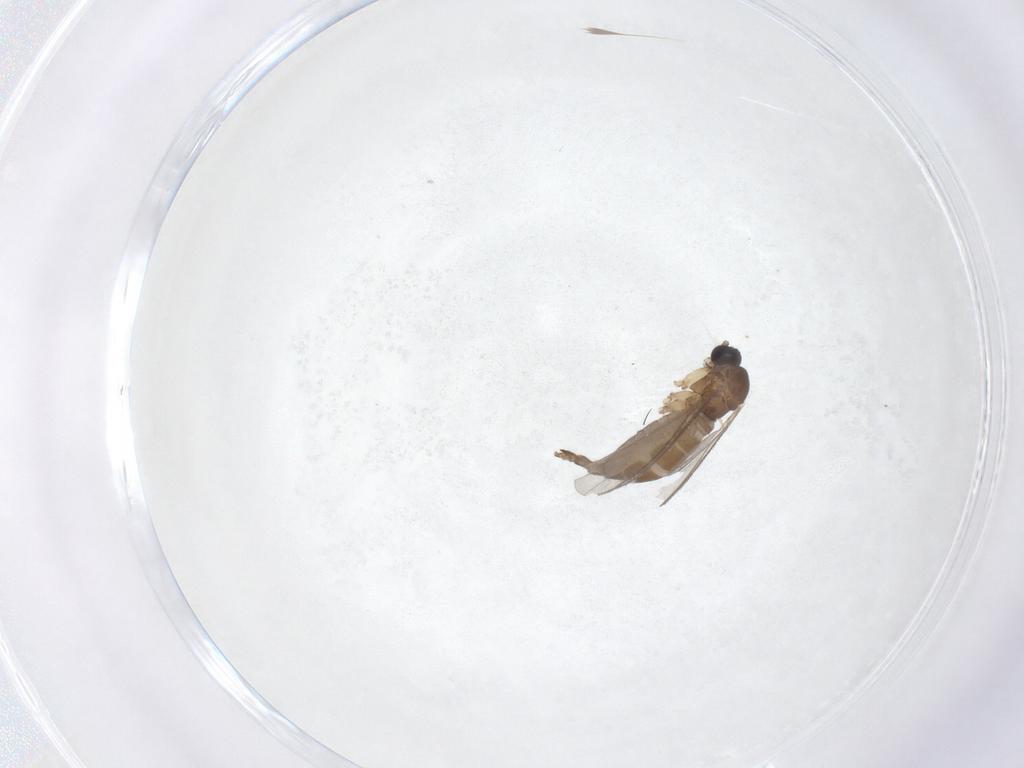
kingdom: Animalia
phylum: Arthropoda
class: Insecta
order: Diptera
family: Sciaridae
